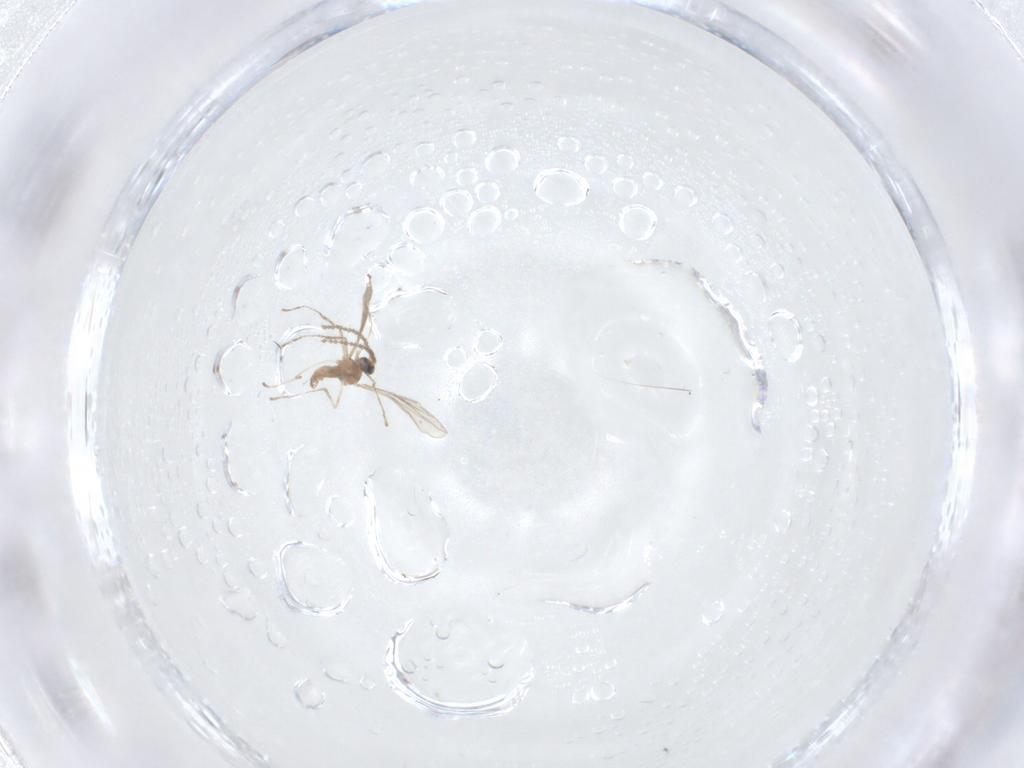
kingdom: Animalia
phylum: Arthropoda
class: Insecta
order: Diptera
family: Cecidomyiidae
